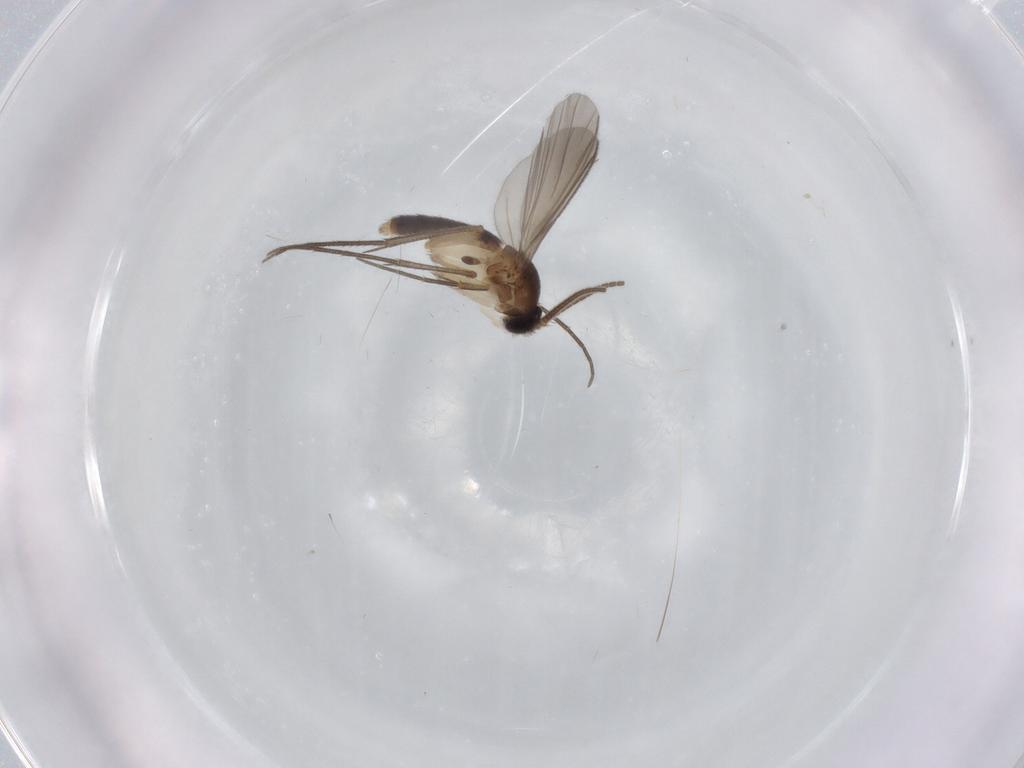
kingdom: Animalia
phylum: Arthropoda
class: Insecta
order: Diptera
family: Mycetophilidae
